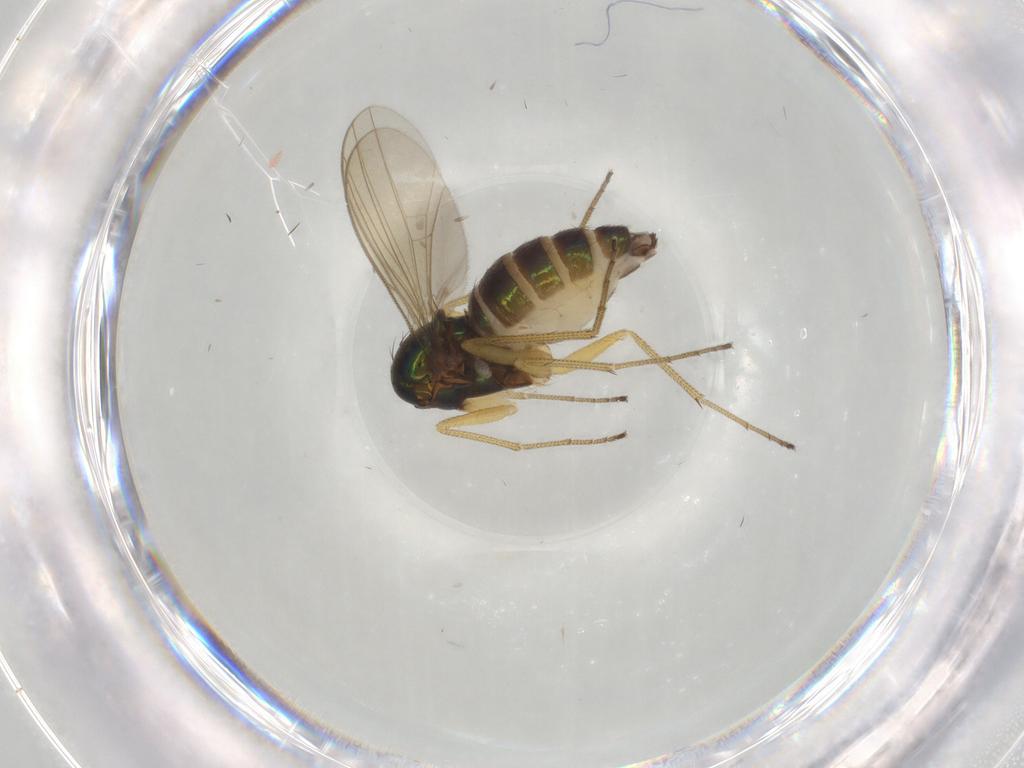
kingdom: Animalia
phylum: Arthropoda
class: Insecta
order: Diptera
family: Dolichopodidae
